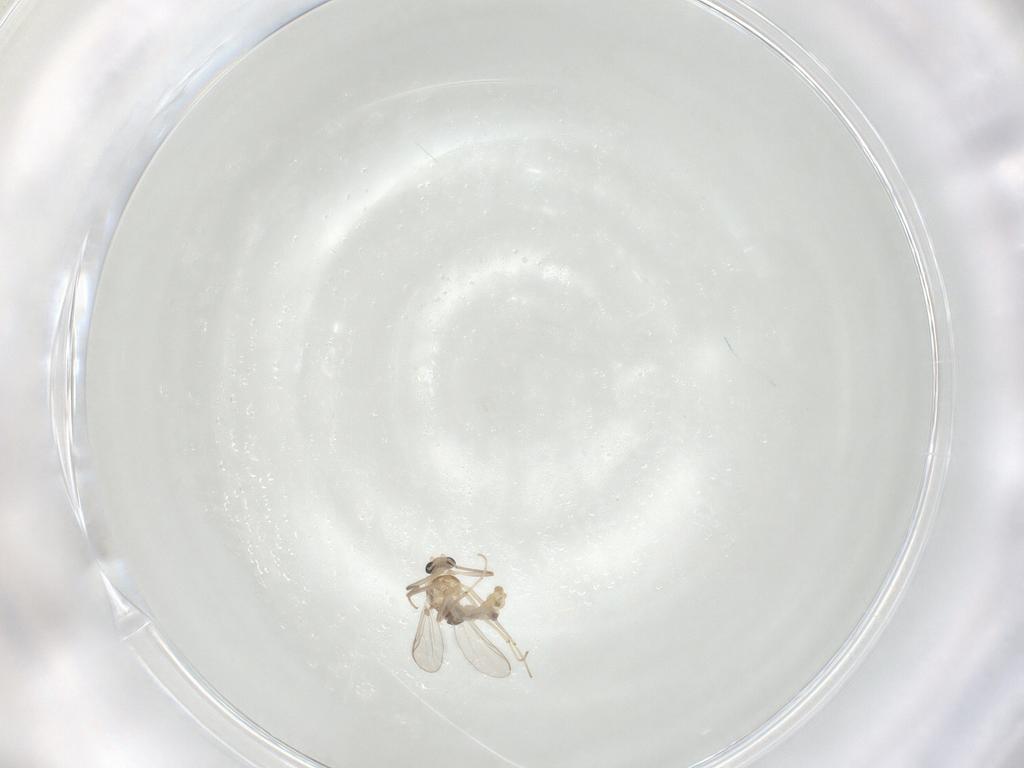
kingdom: Animalia
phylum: Arthropoda
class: Insecta
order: Diptera
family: Chironomidae
